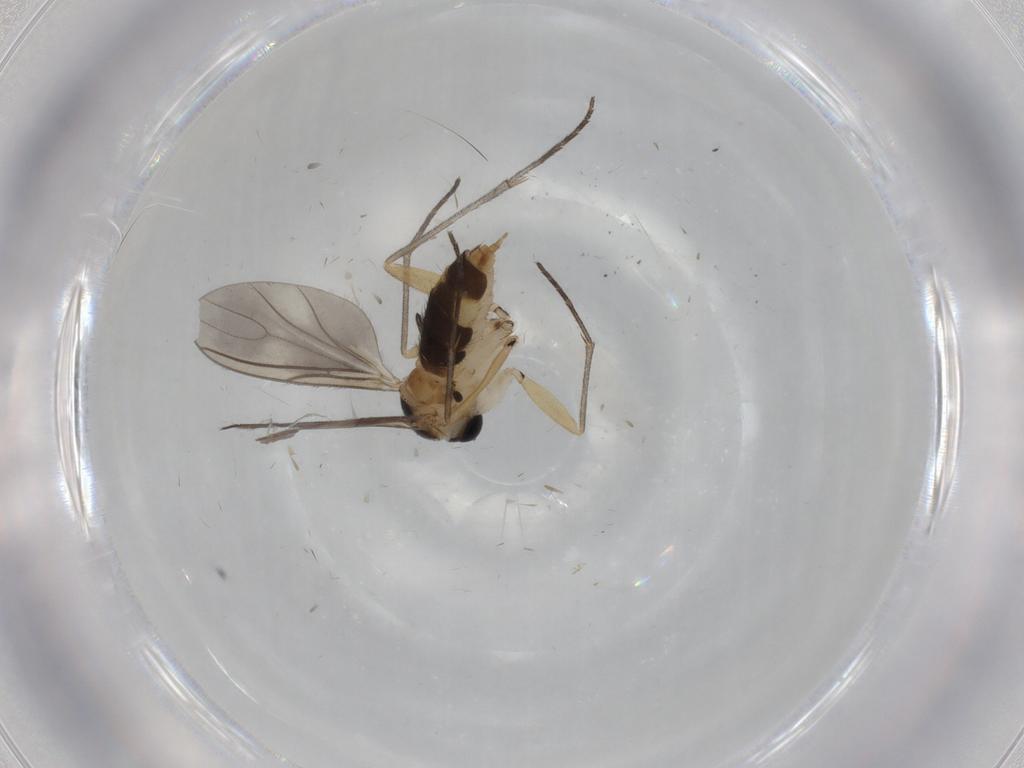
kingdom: Animalia
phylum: Arthropoda
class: Insecta
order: Diptera
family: Sciaridae
